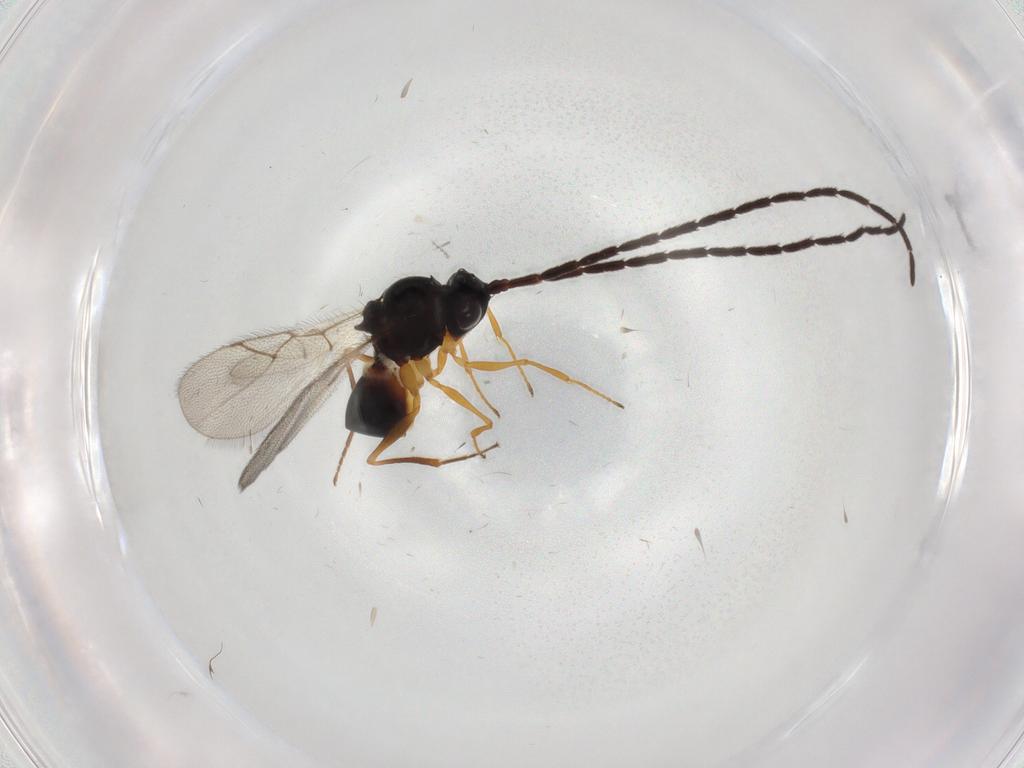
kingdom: Animalia
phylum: Arthropoda
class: Insecta
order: Hymenoptera
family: Figitidae
